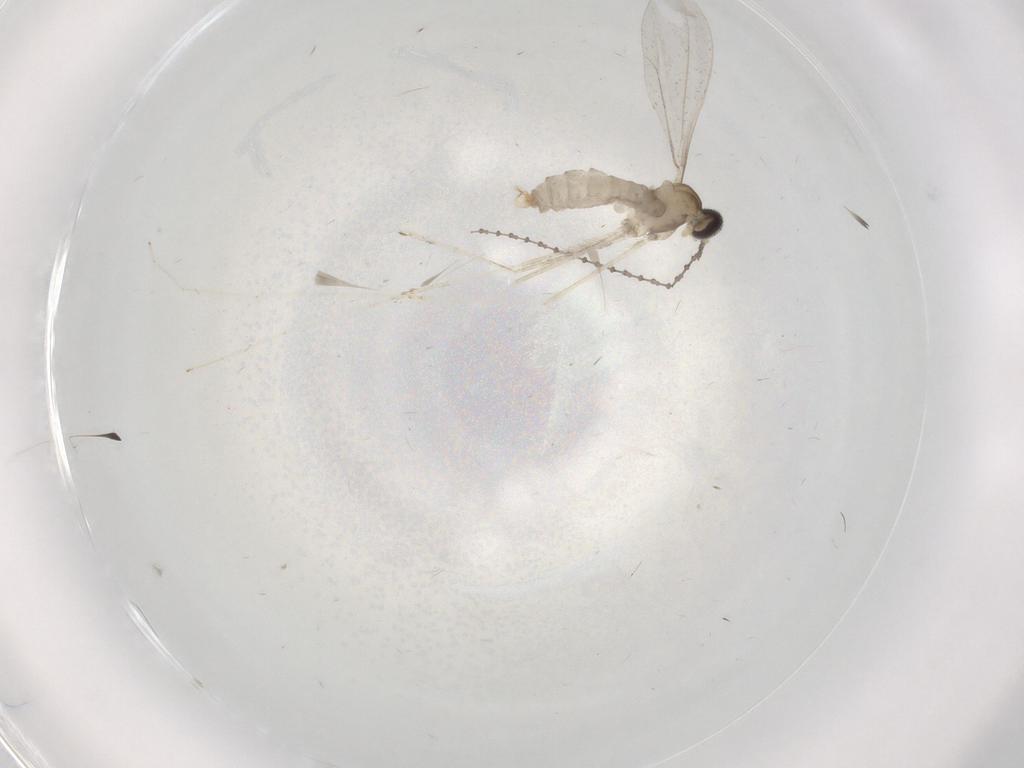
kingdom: Animalia
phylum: Arthropoda
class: Insecta
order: Diptera
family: Cecidomyiidae
